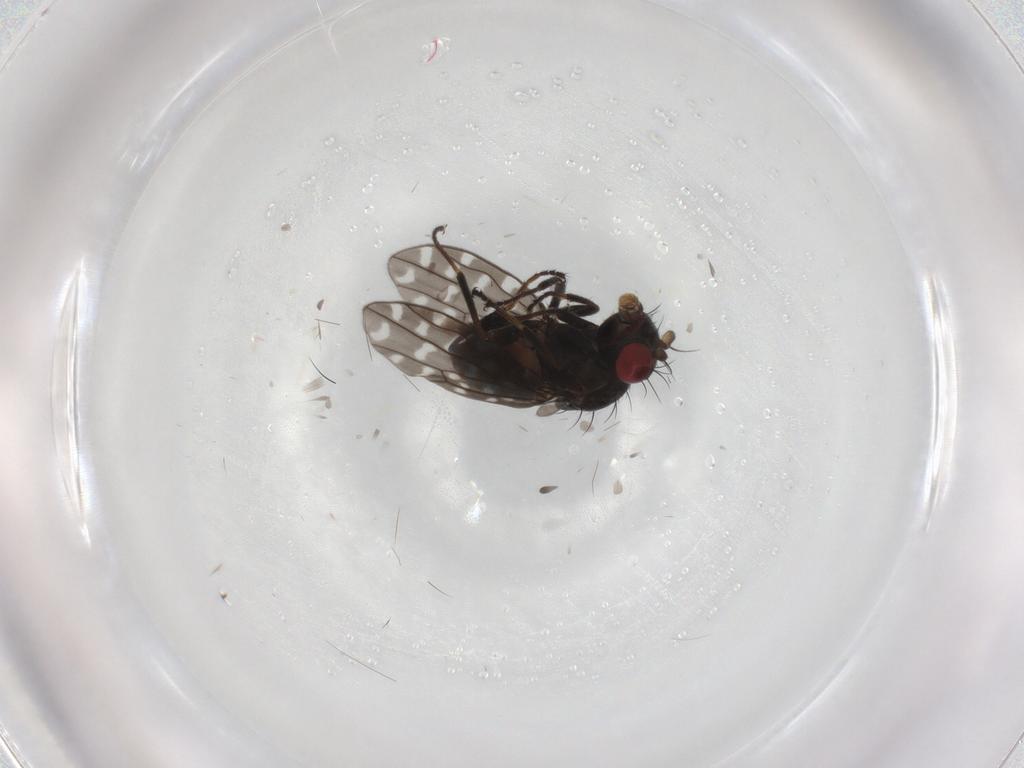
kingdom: Animalia
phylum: Arthropoda
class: Insecta
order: Diptera
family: Ephydridae
